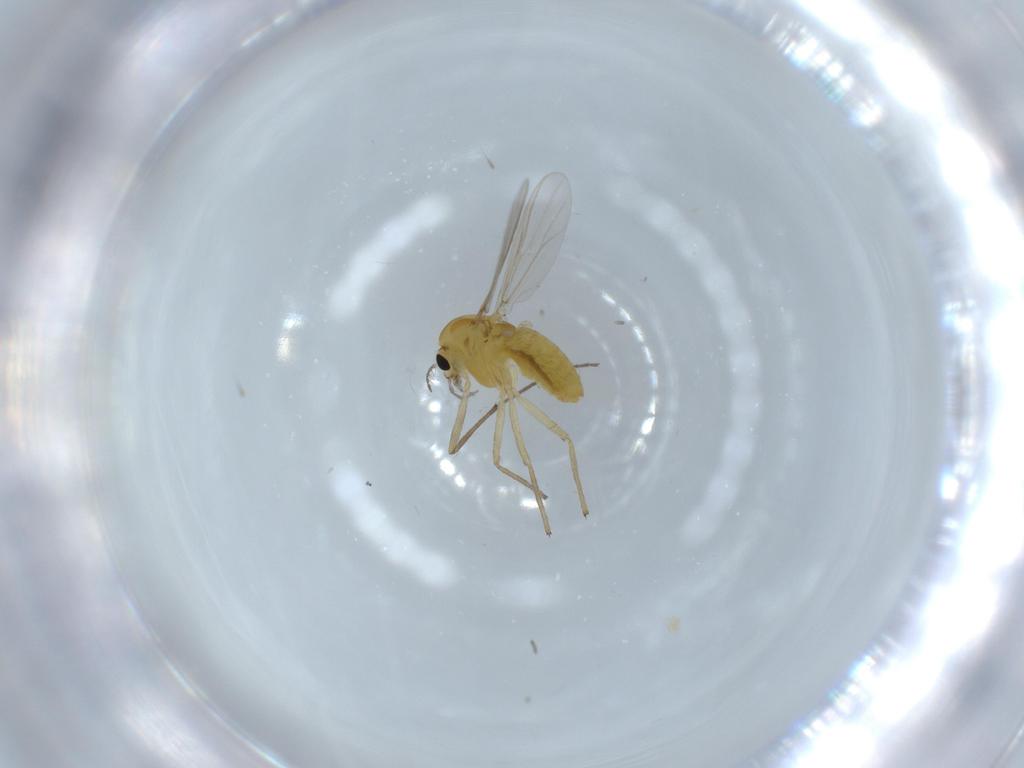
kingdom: Animalia
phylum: Arthropoda
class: Insecta
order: Diptera
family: Chironomidae
